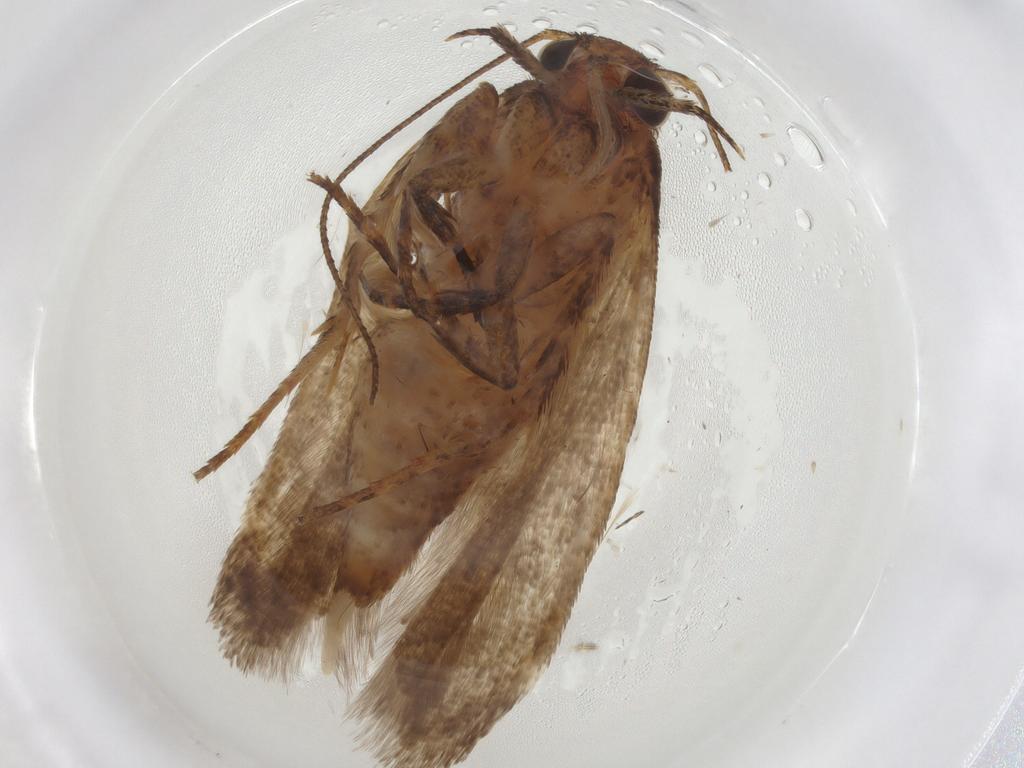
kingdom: Animalia
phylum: Arthropoda
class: Insecta
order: Lepidoptera
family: Gelechiidae
